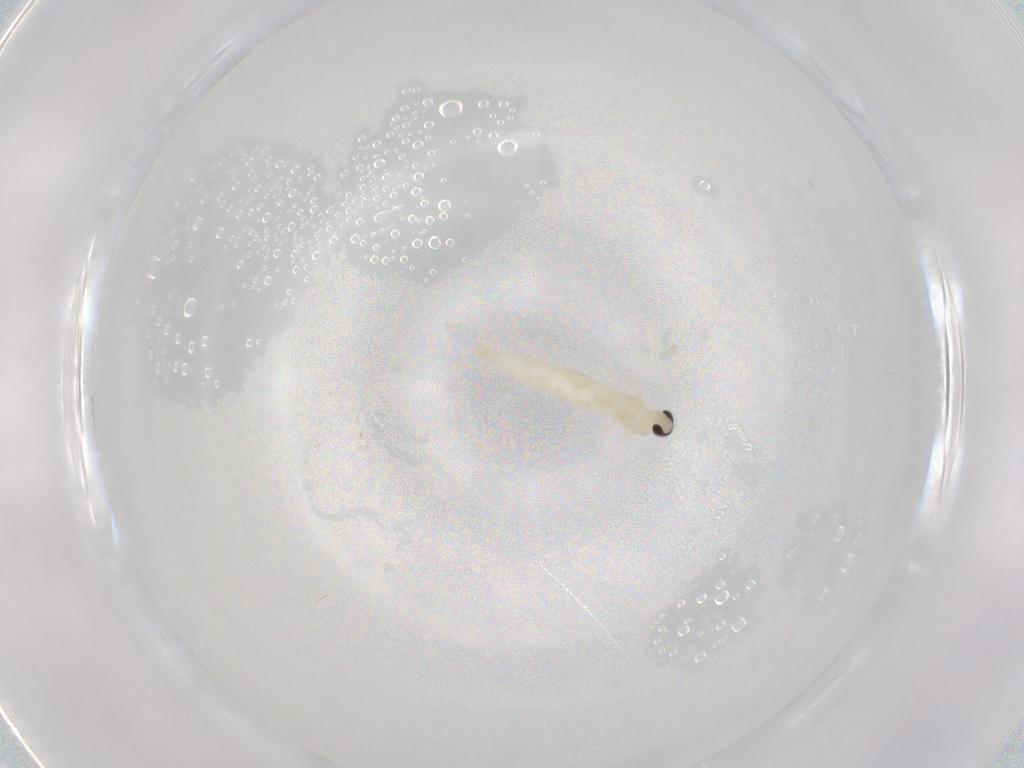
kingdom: Animalia
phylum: Arthropoda
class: Insecta
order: Diptera
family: Cecidomyiidae
